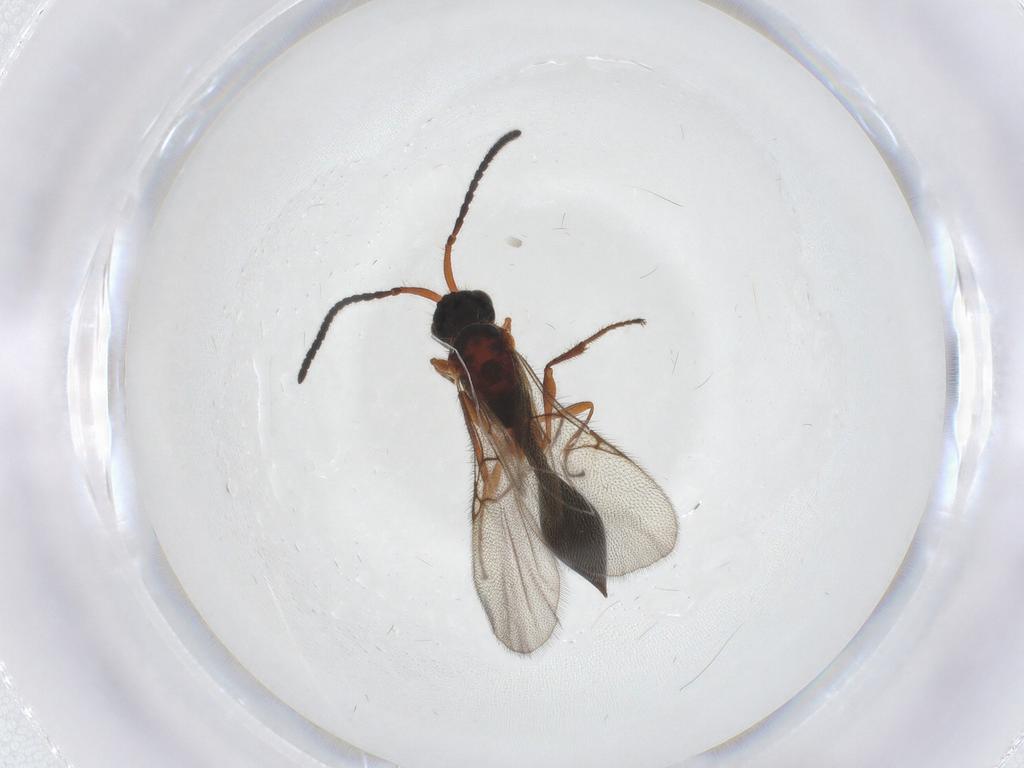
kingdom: Animalia
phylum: Arthropoda
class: Insecta
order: Hymenoptera
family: Diapriidae
